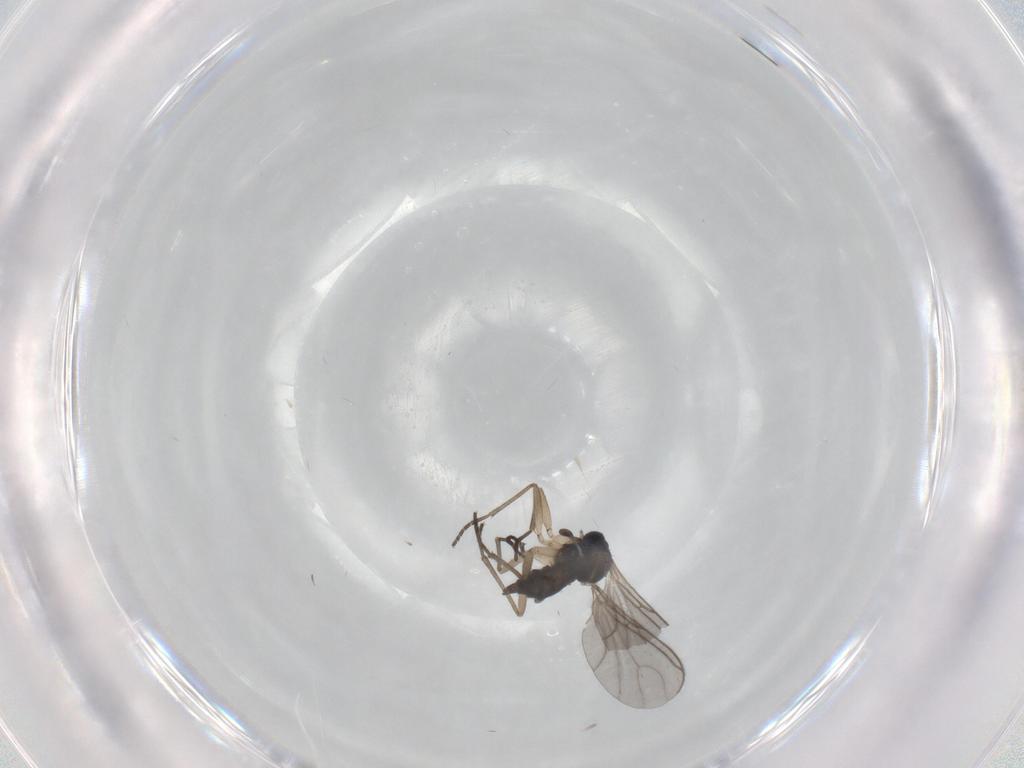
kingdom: Animalia
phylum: Arthropoda
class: Insecta
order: Diptera
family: Sciaridae
